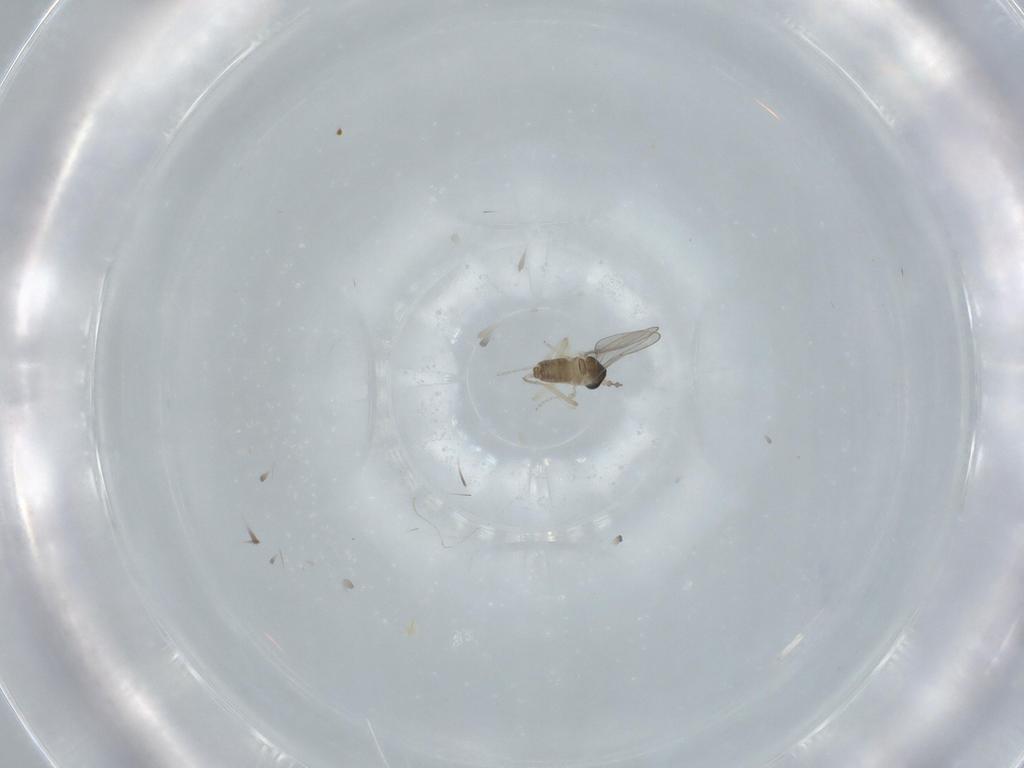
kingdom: Animalia
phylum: Arthropoda
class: Insecta
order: Diptera
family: Cecidomyiidae
